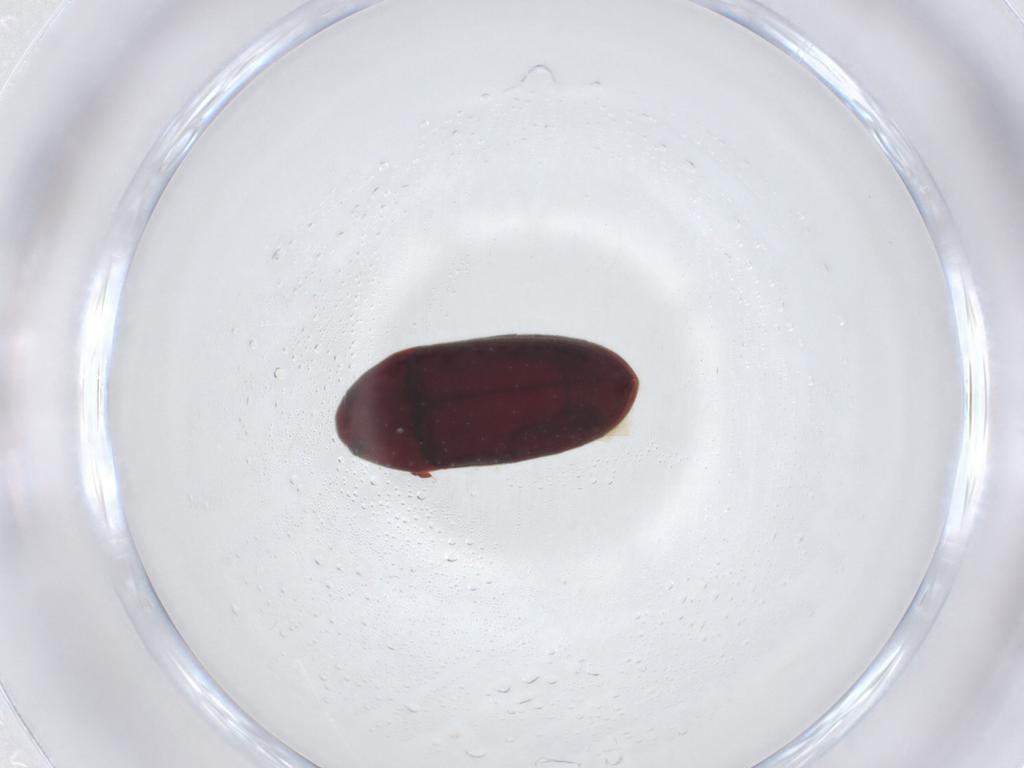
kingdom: Animalia
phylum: Arthropoda
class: Insecta
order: Coleoptera
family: Throscidae
